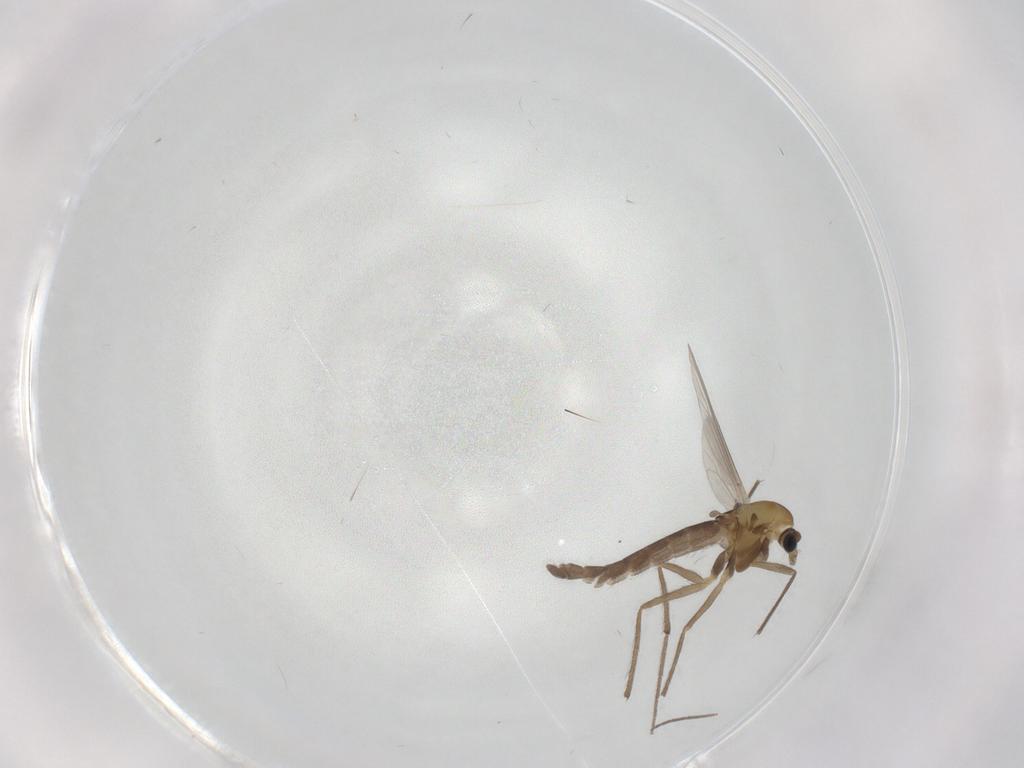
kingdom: Animalia
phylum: Arthropoda
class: Insecta
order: Diptera
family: Chironomidae
